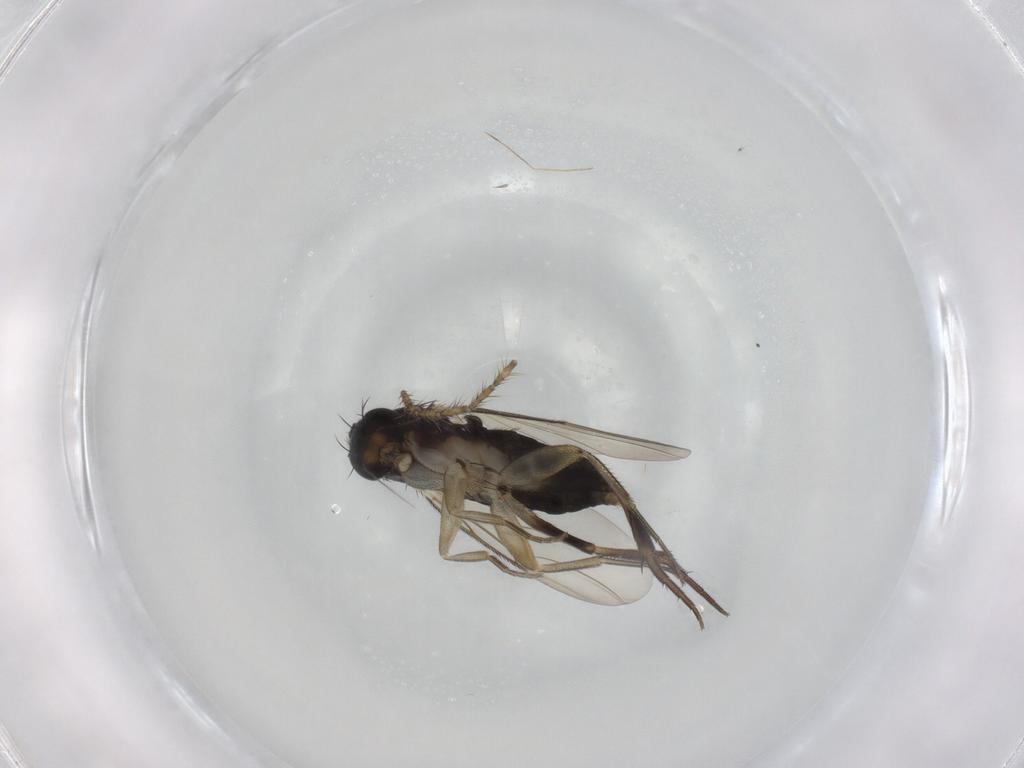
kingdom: Animalia
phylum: Arthropoda
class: Insecta
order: Diptera
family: Phoridae
